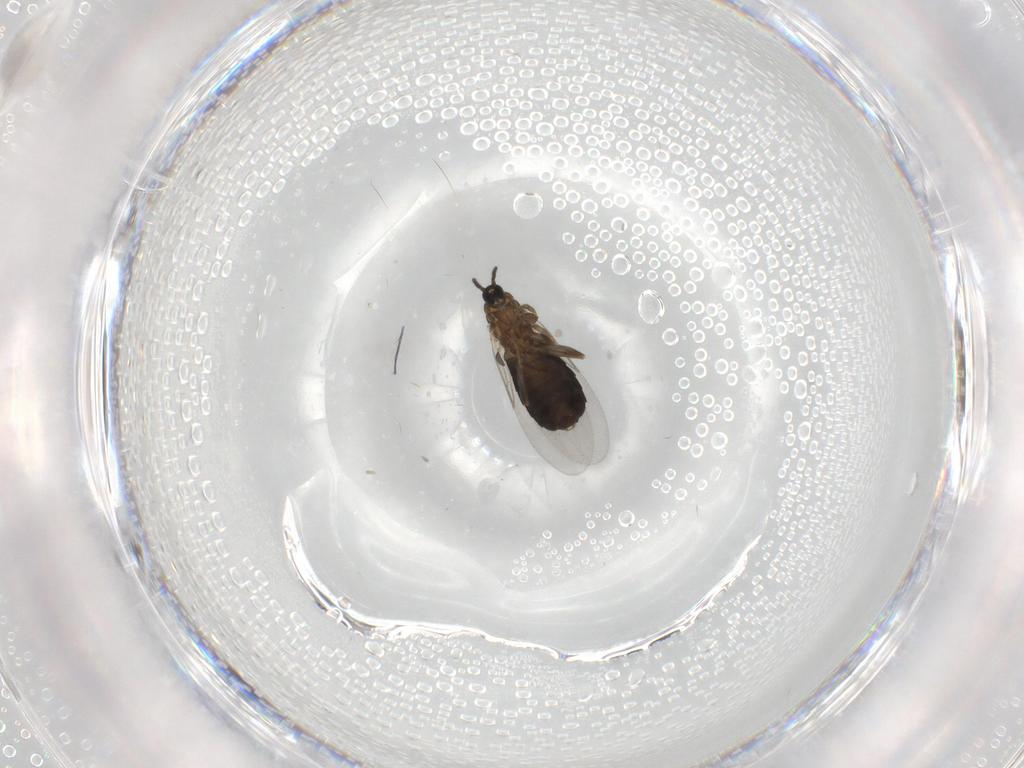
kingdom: Animalia
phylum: Arthropoda
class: Insecta
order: Diptera
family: Scatopsidae
